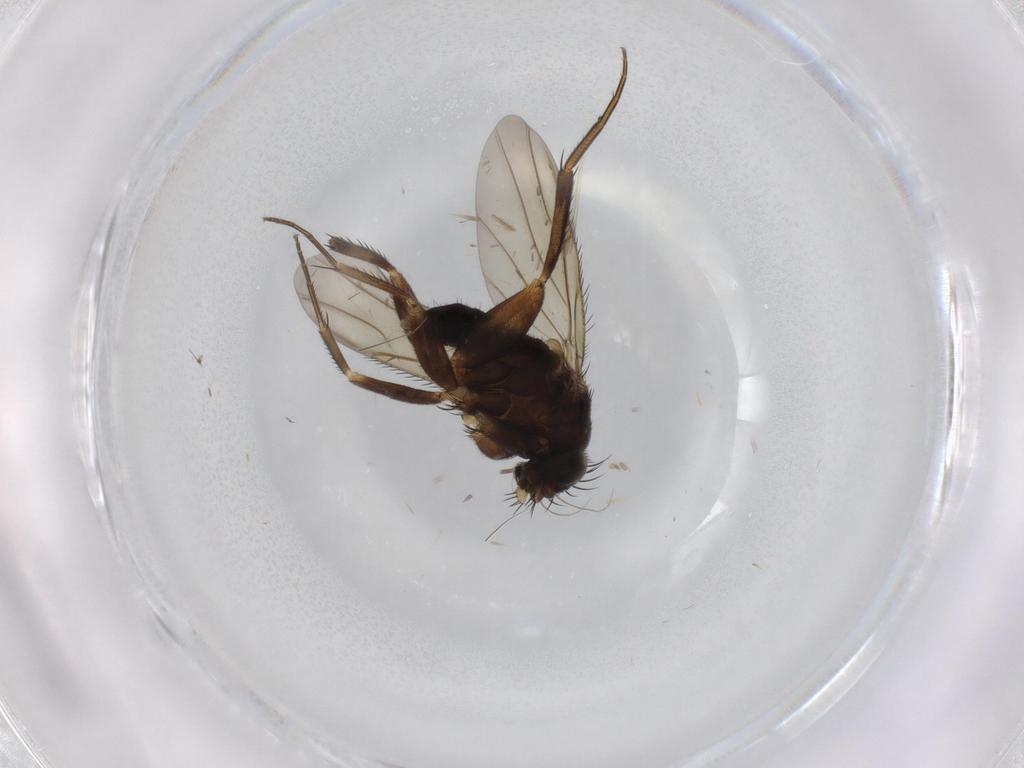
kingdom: Animalia
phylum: Arthropoda
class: Insecta
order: Diptera
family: Phoridae
